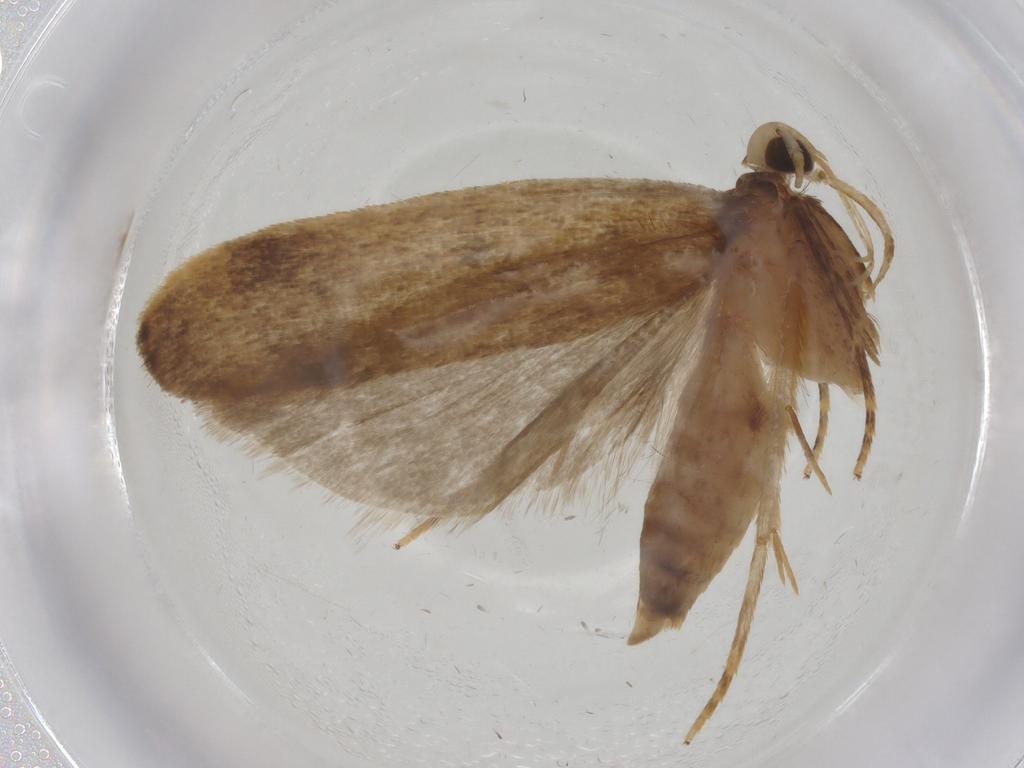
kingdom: Animalia
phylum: Arthropoda
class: Insecta
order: Lepidoptera
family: Autostichidae
